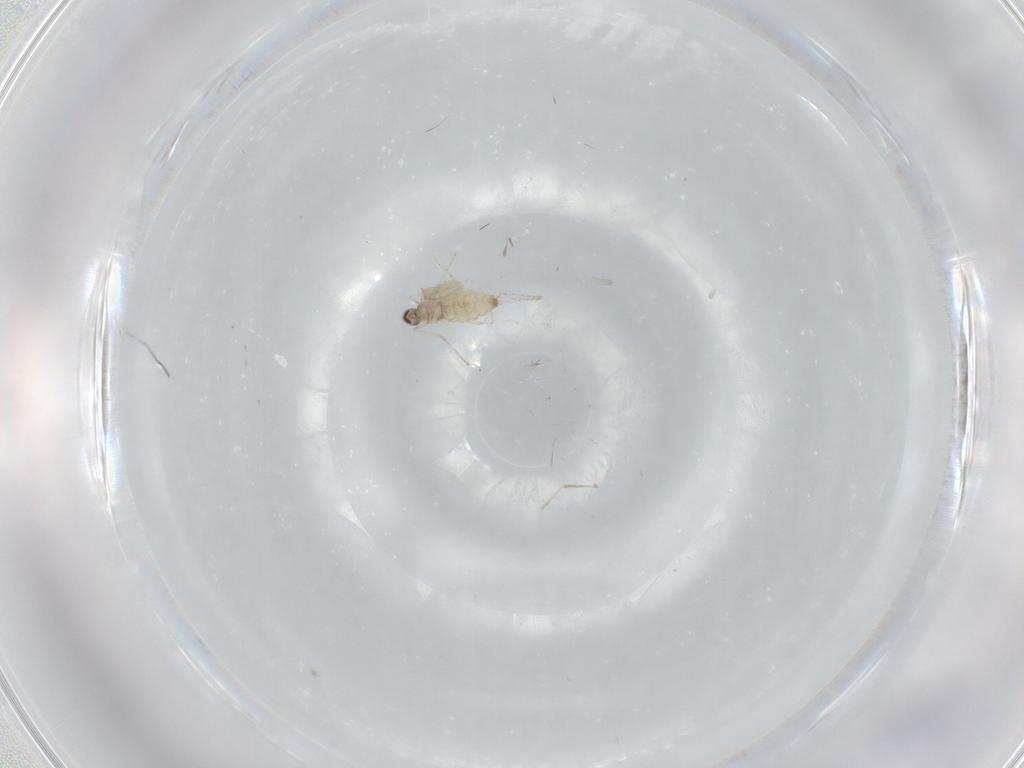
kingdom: Animalia
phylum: Arthropoda
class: Insecta
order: Diptera
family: Cecidomyiidae
